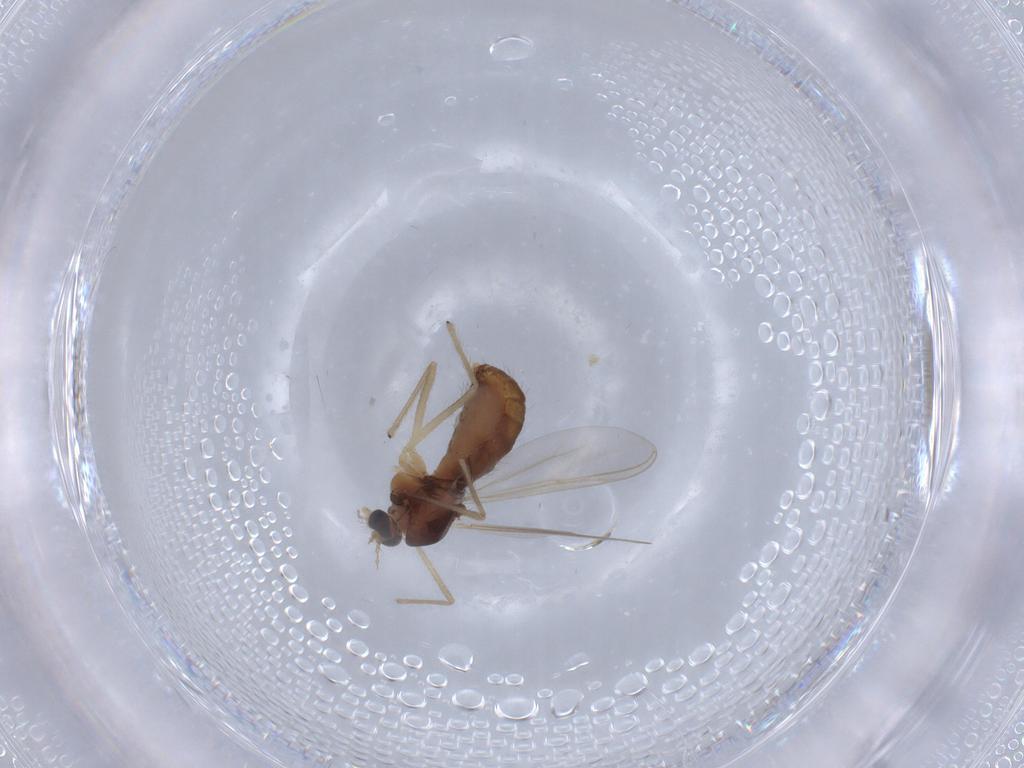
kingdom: Animalia
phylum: Arthropoda
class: Insecta
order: Diptera
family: Chironomidae
